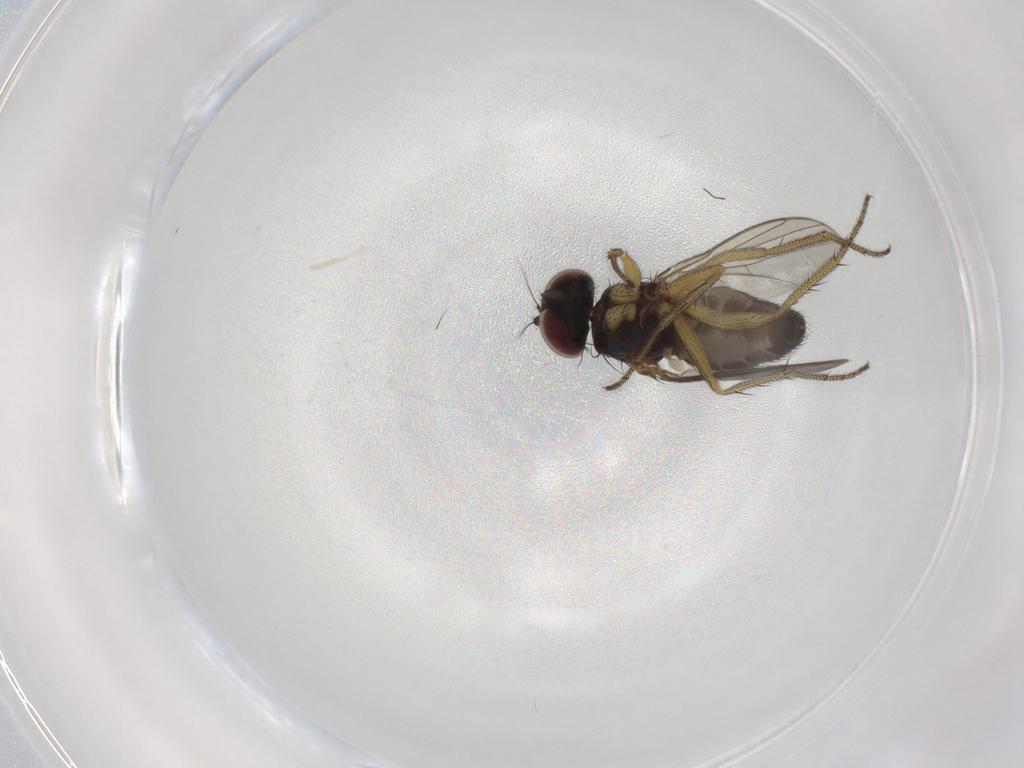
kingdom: Animalia
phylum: Arthropoda
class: Insecta
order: Diptera
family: Dolichopodidae
